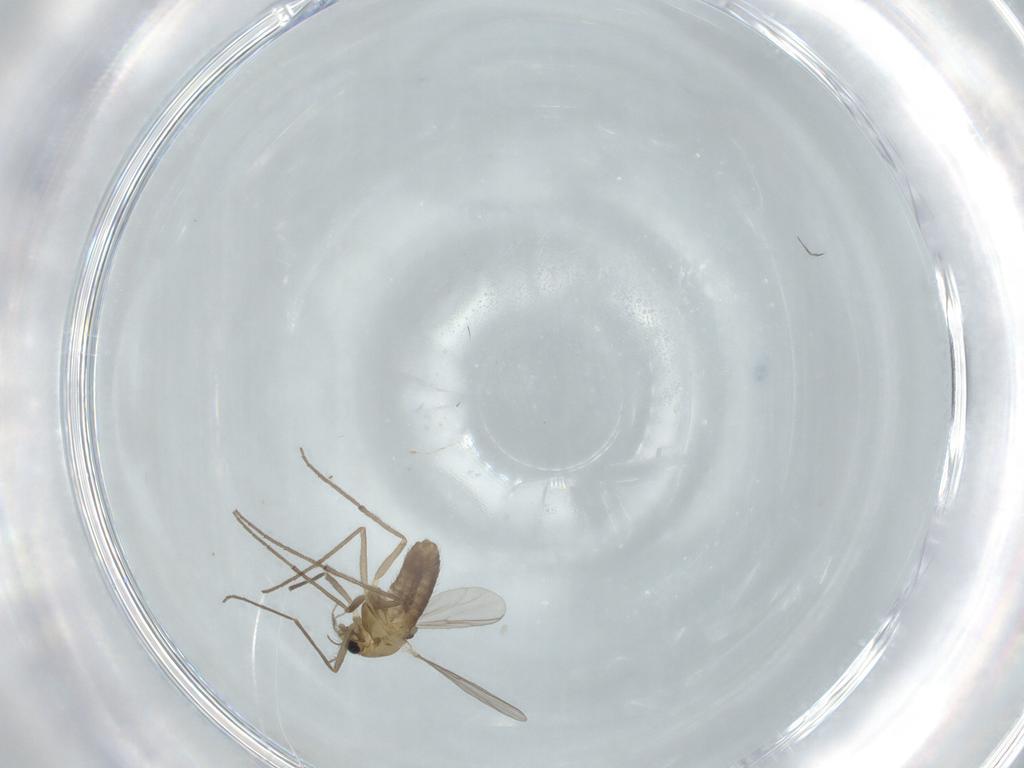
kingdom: Animalia
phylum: Arthropoda
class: Insecta
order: Diptera
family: Chironomidae
